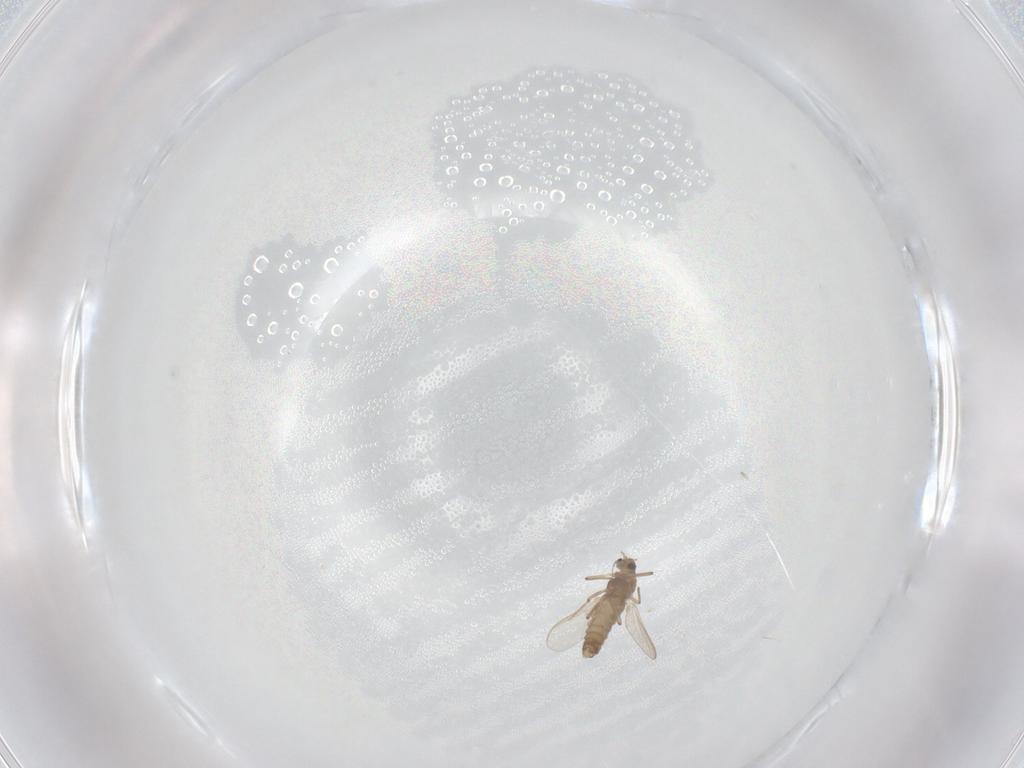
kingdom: Animalia
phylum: Arthropoda
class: Insecta
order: Diptera
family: Chironomidae
